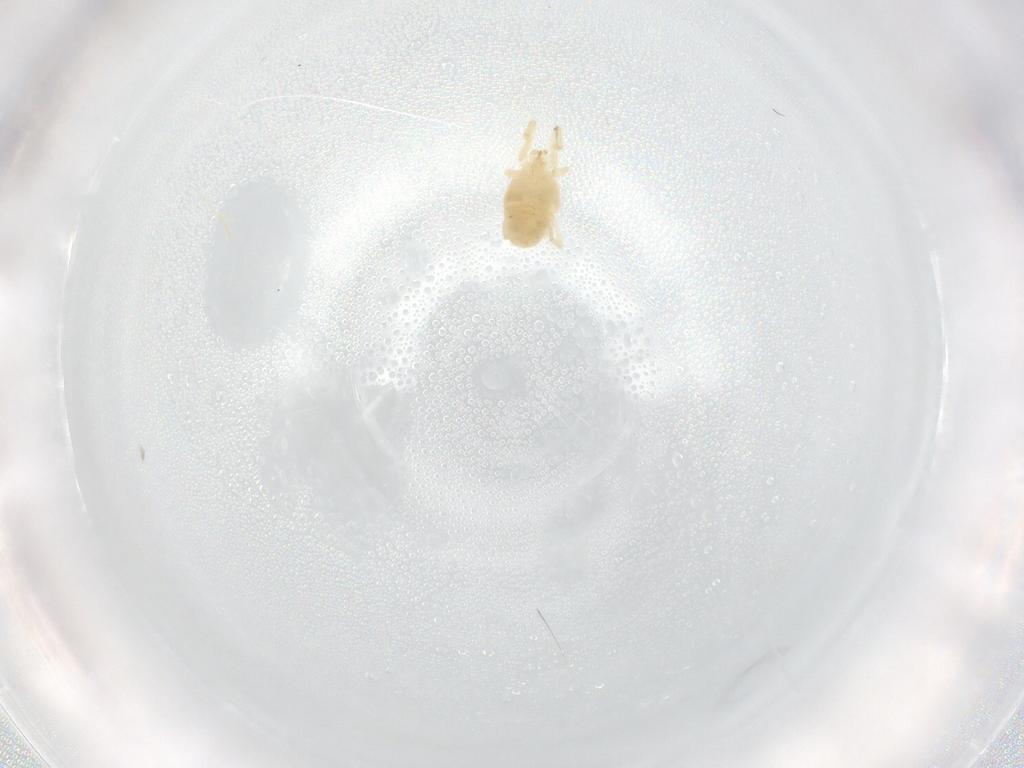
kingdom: Animalia
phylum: Arthropoda
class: Arachnida
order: Trombidiformes
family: Erythraeidae
